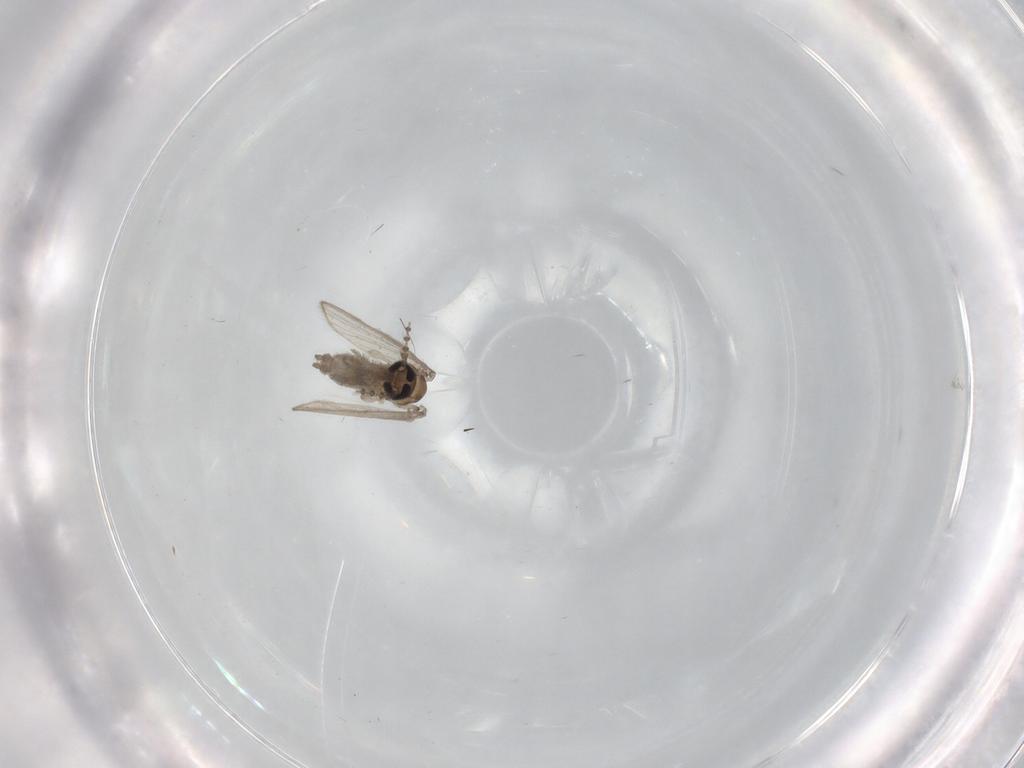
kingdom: Animalia
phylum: Arthropoda
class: Insecta
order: Diptera
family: Psychodidae
